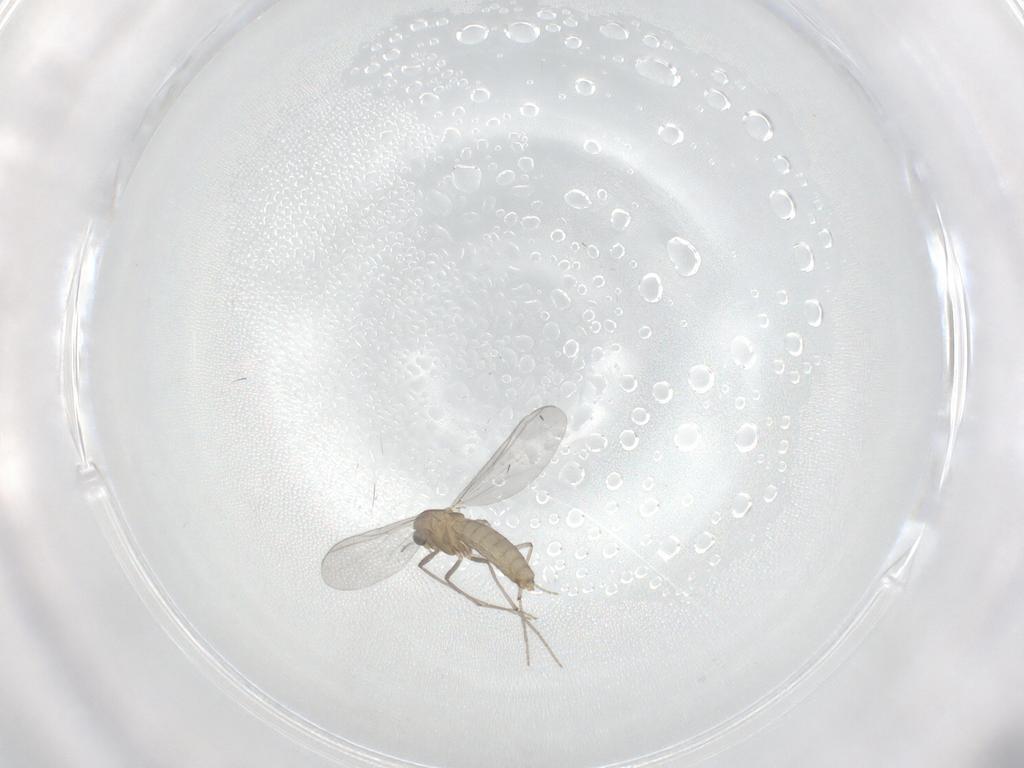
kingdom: Animalia
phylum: Arthropoda
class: Insecta
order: Diptera
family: Chironomidae
